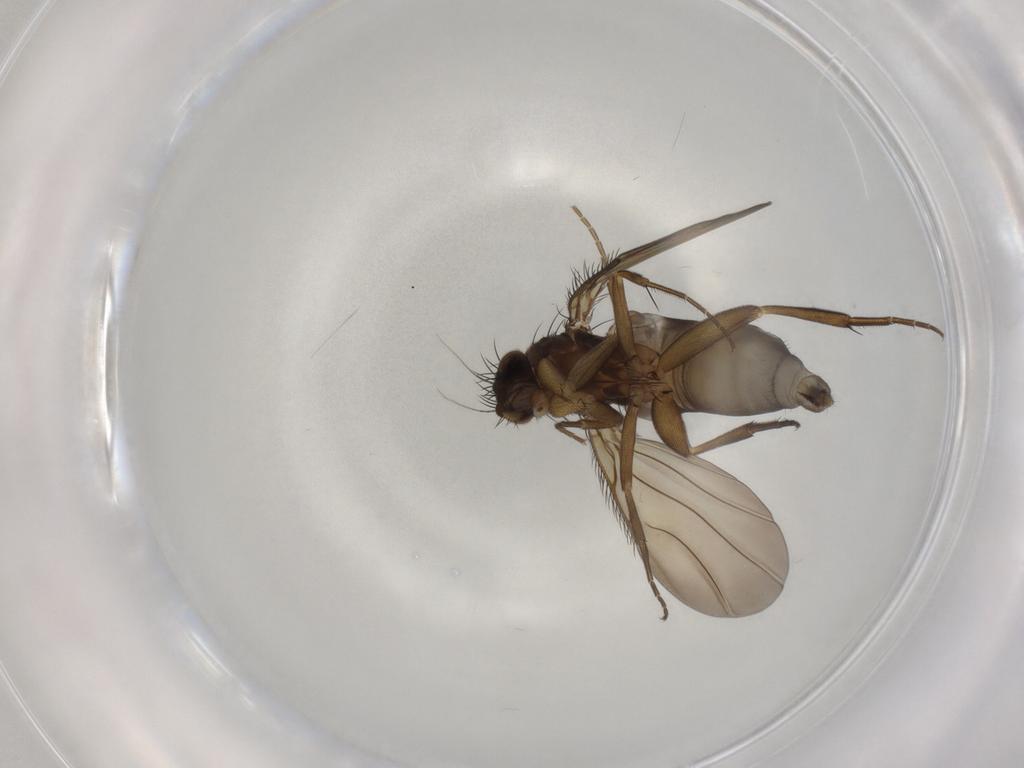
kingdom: Animalia
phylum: Arthropoda
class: Insecta
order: Diptera
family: Phoridae
